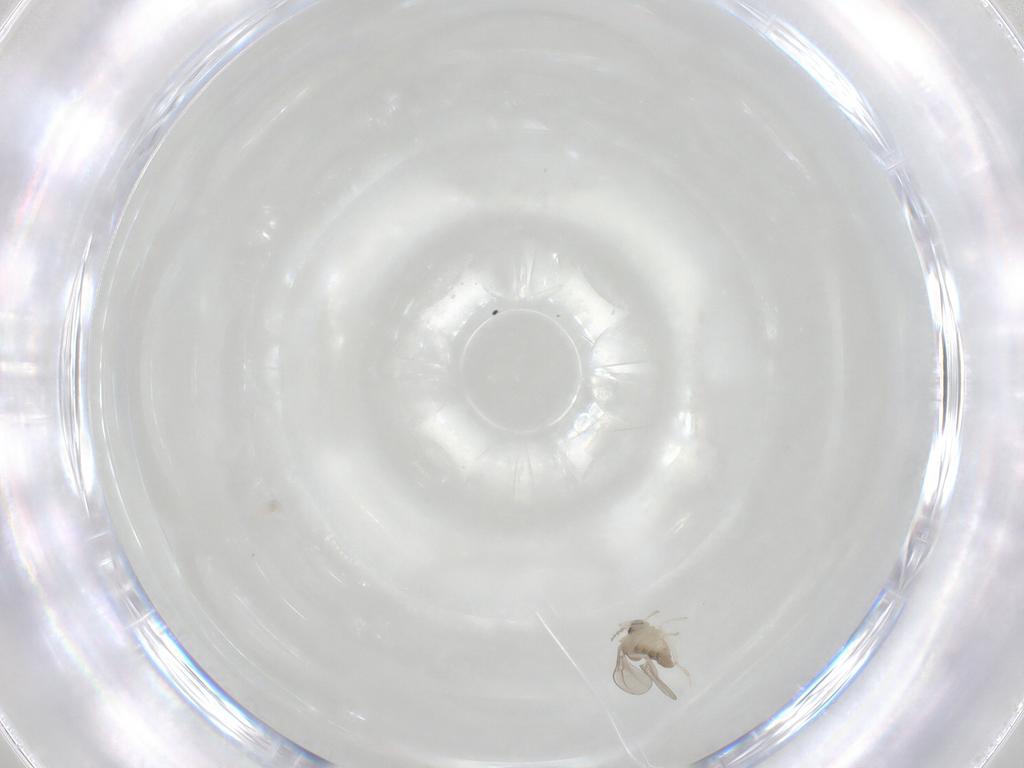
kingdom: Animalia
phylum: Arthropoda
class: Insecta
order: Diptera
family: Cecidomyiidae
